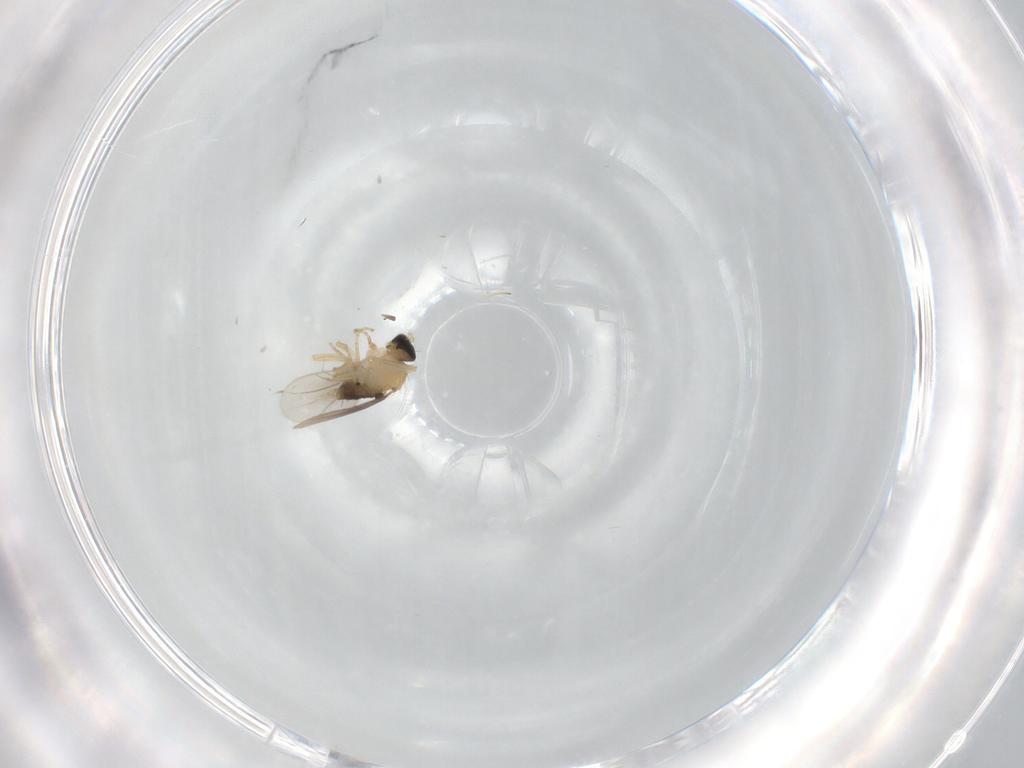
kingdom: Animalia
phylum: Arthropoda
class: Insecta
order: Diptera
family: Hybotidae
